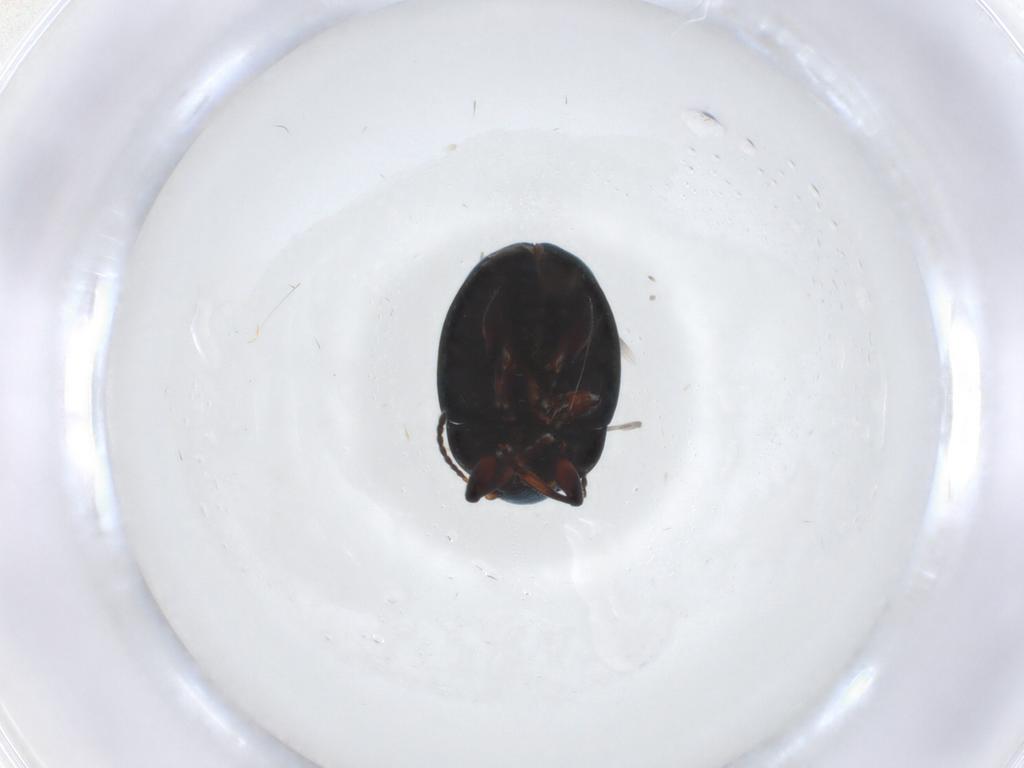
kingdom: Animalia
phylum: Arthropoda
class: Insecta
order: Coleoptera
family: Chrysomelidae
